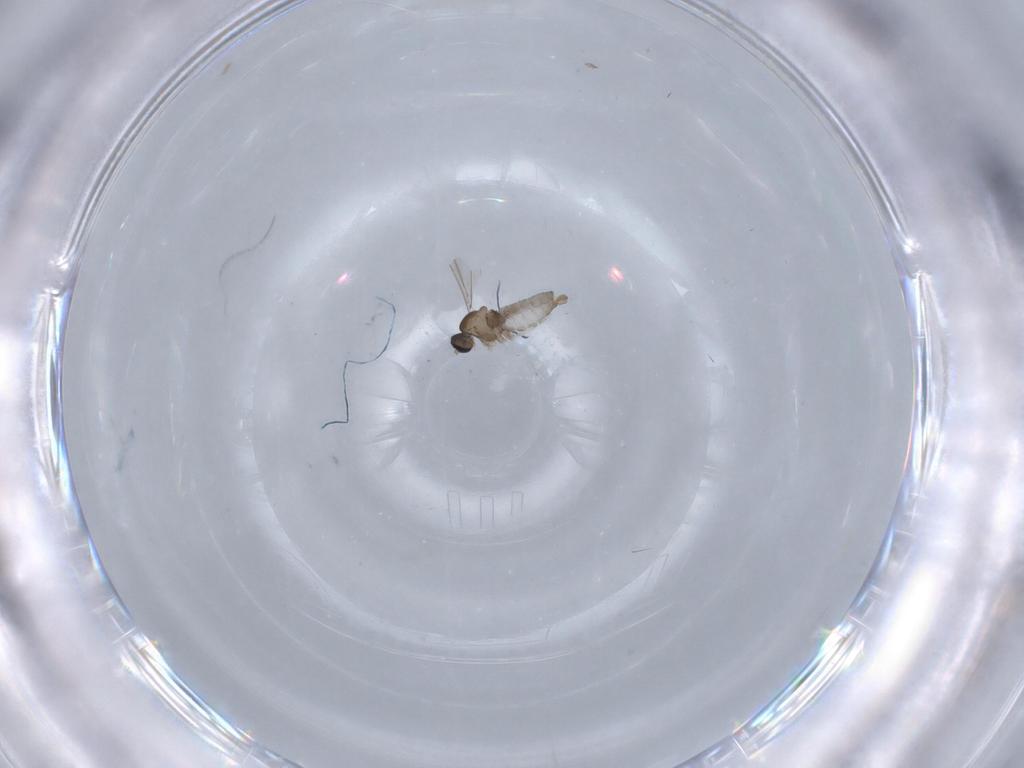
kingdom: Animalia
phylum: Arthropoda
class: Insecta
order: Diptera
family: Cecidomyiidae
